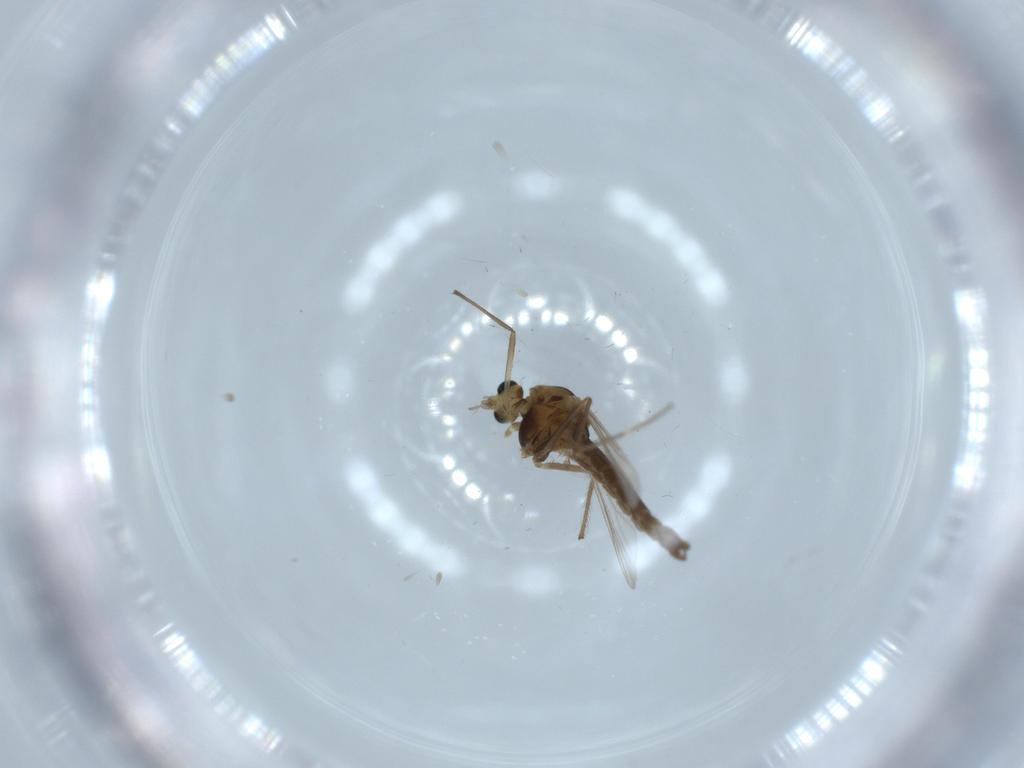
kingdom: Animalia
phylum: Arthropoda
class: Insecta
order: Diptera
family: Chironomidae
